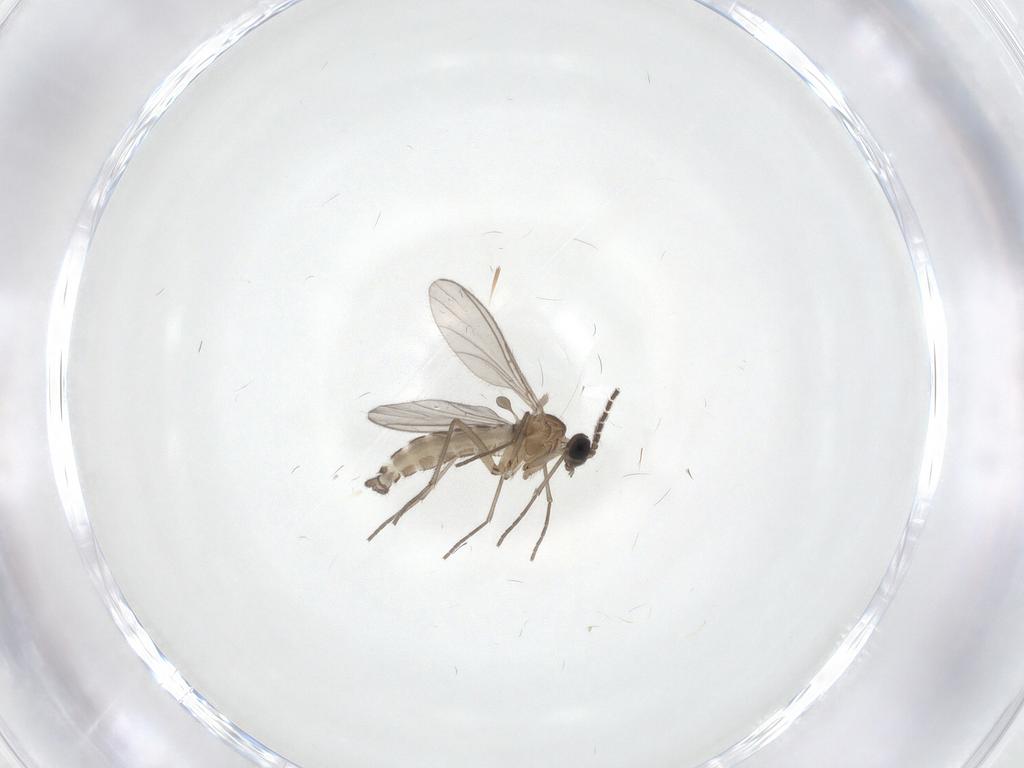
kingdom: Animalia
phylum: Arthropoda
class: Insecta
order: Diptera
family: Sciaridae
